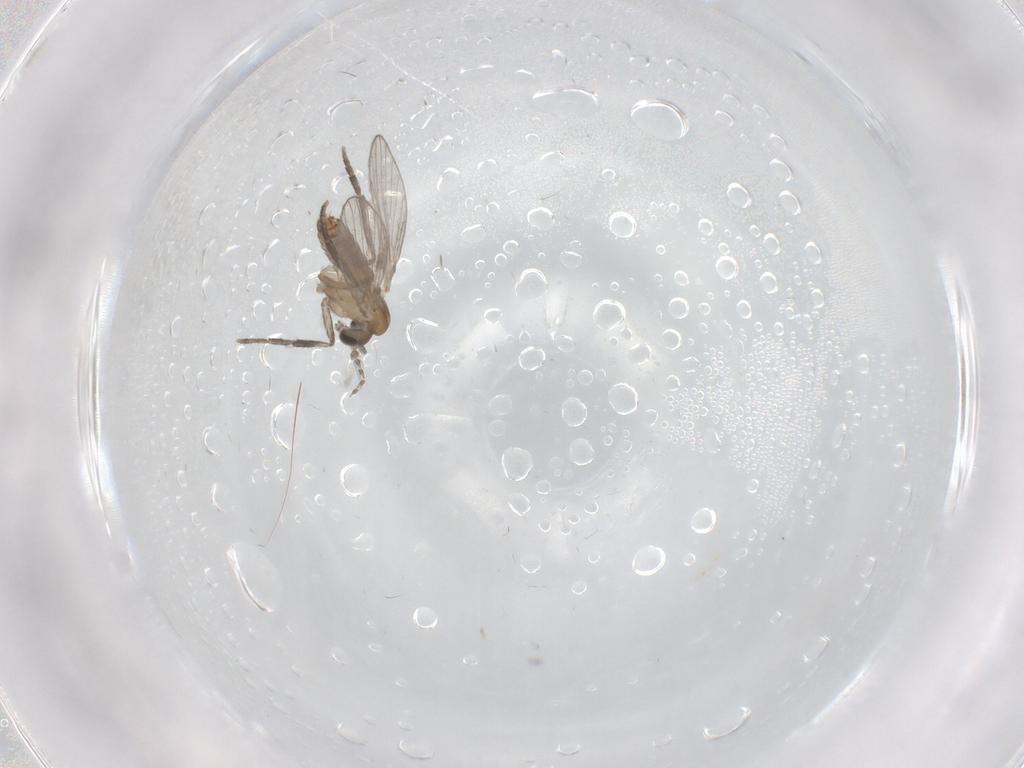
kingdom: Animalia
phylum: Arthropoda
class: Insecta
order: Diptera
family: Psychodidae
